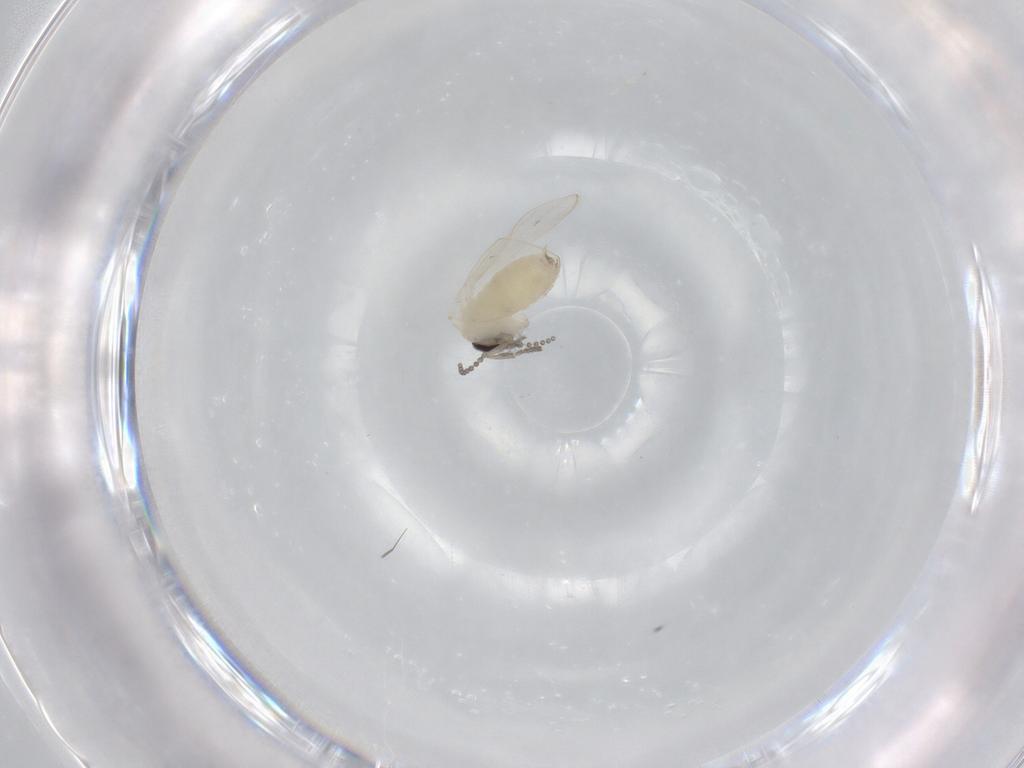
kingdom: Animalia
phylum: Arthropoda
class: Insecta
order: Diptera
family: Psychodidae
